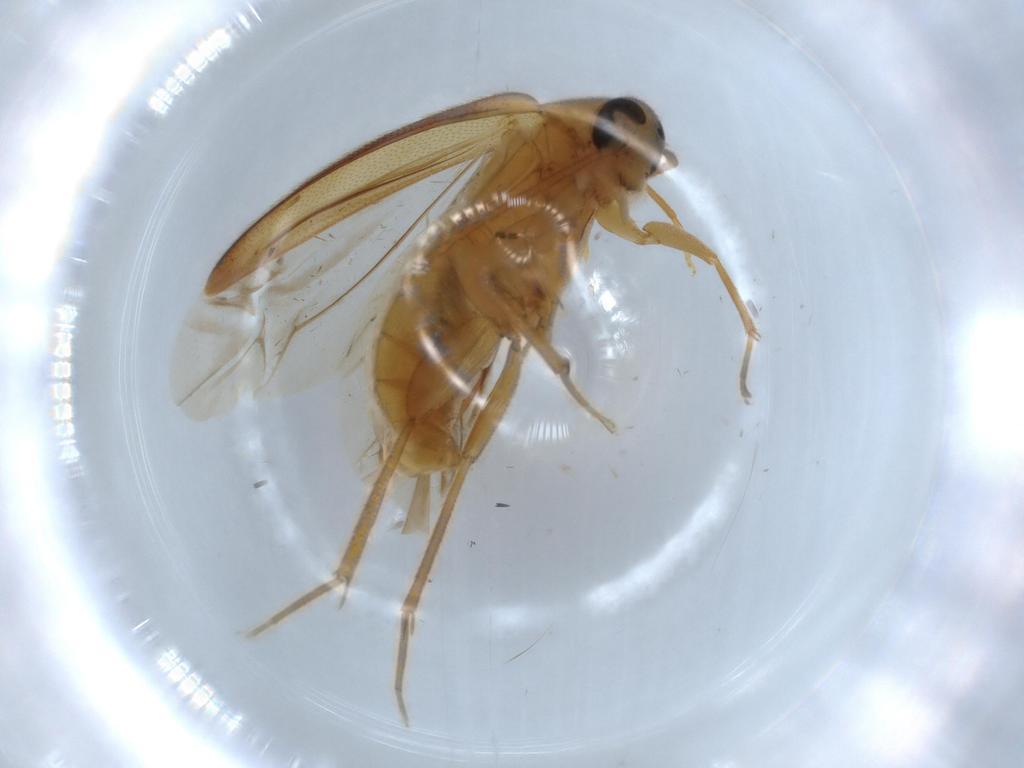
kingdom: Animalia
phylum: Arthropoda
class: Insecta
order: Coleoptera
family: Scraptiidae
